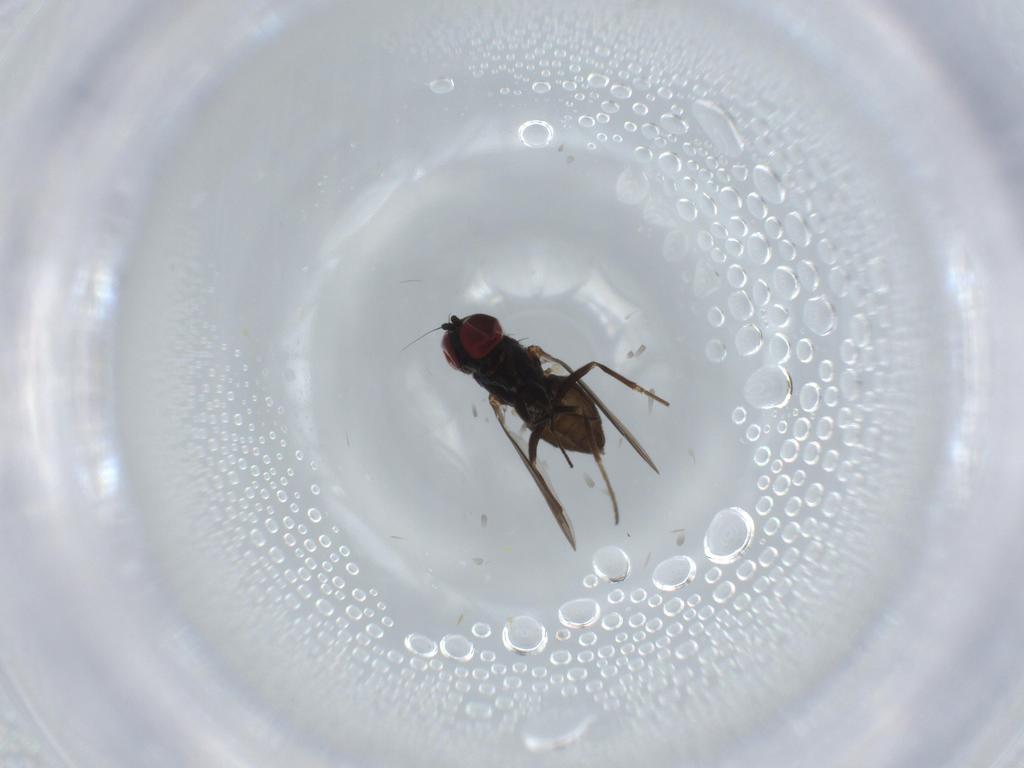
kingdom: Animalia
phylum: Arthropoda
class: Insecta
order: Diptera
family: Dolichopodidae
